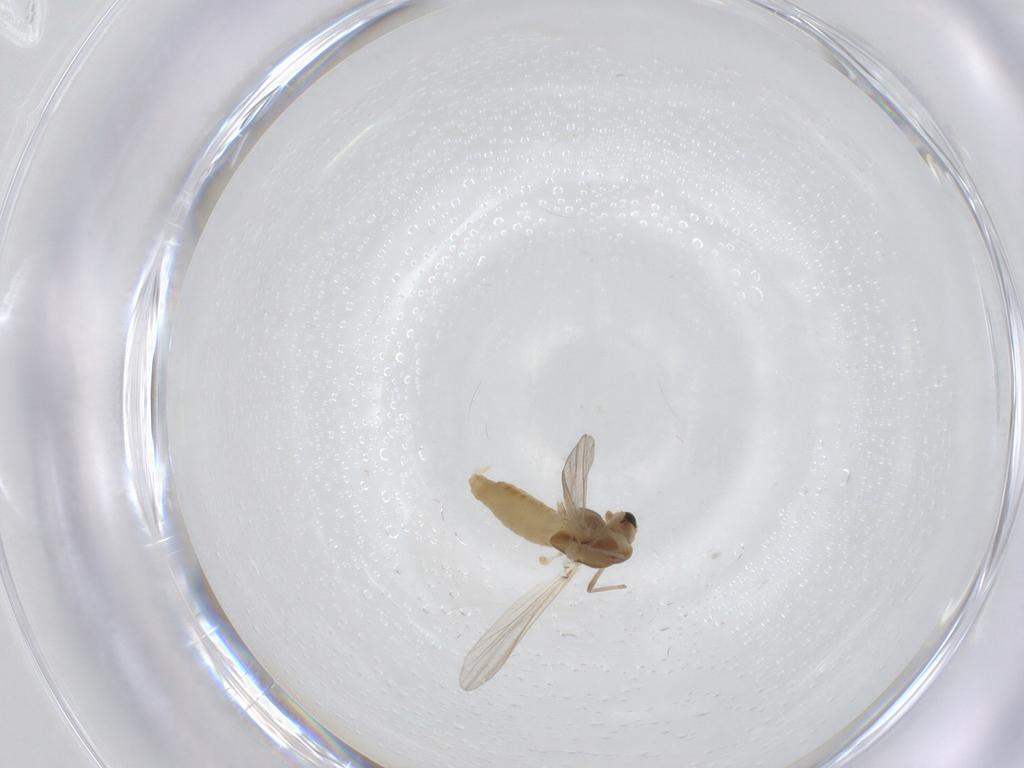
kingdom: Animalia
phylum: Arthropoda
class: Insecta
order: Diptera
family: Chironomidae
